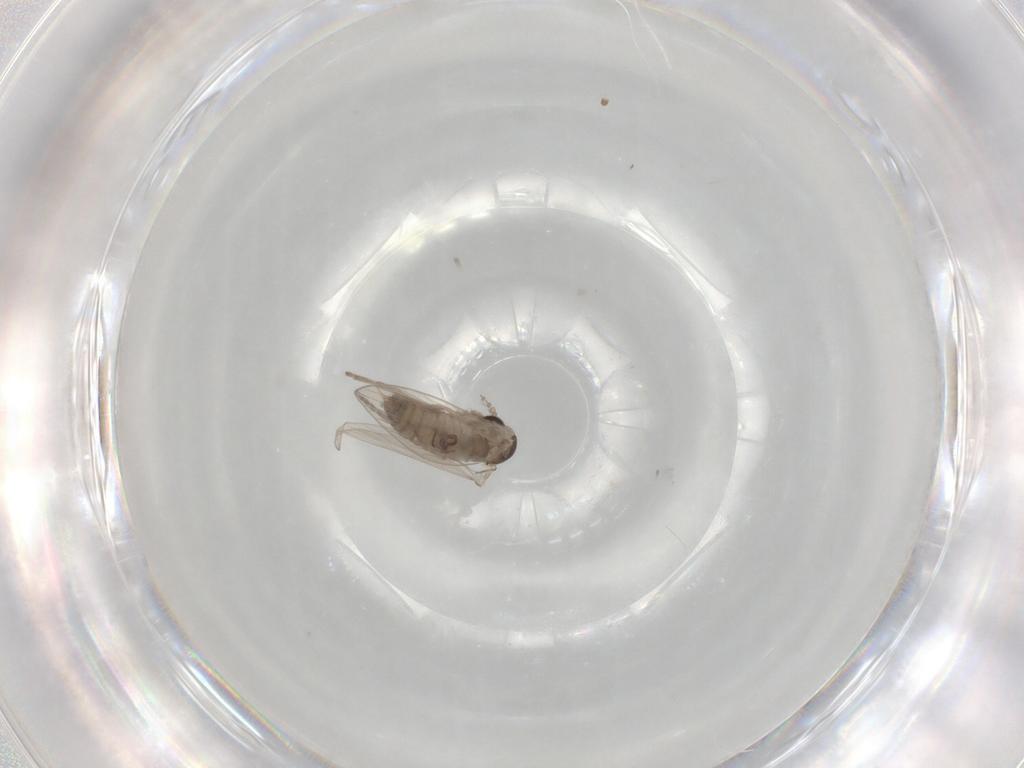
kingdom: Animalia
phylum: Arthropoda
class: Insecta
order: Diptera
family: Psychodidae
